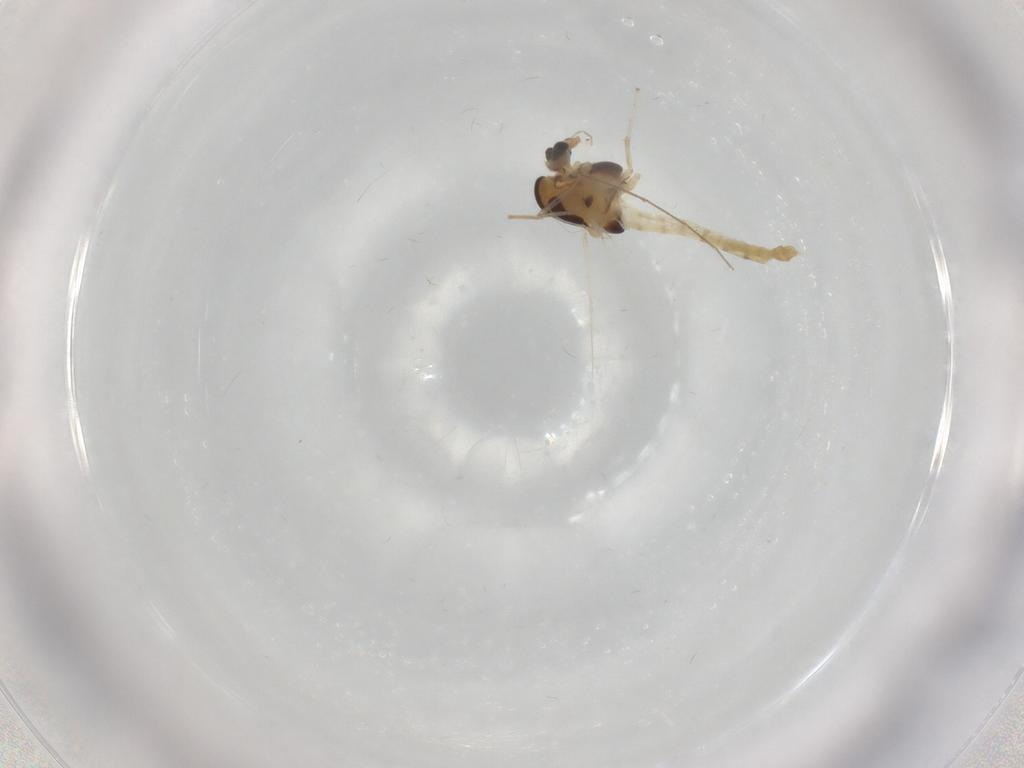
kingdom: Animalia
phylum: Arthropoda
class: Insecta
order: Diptera
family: Chironomidae
